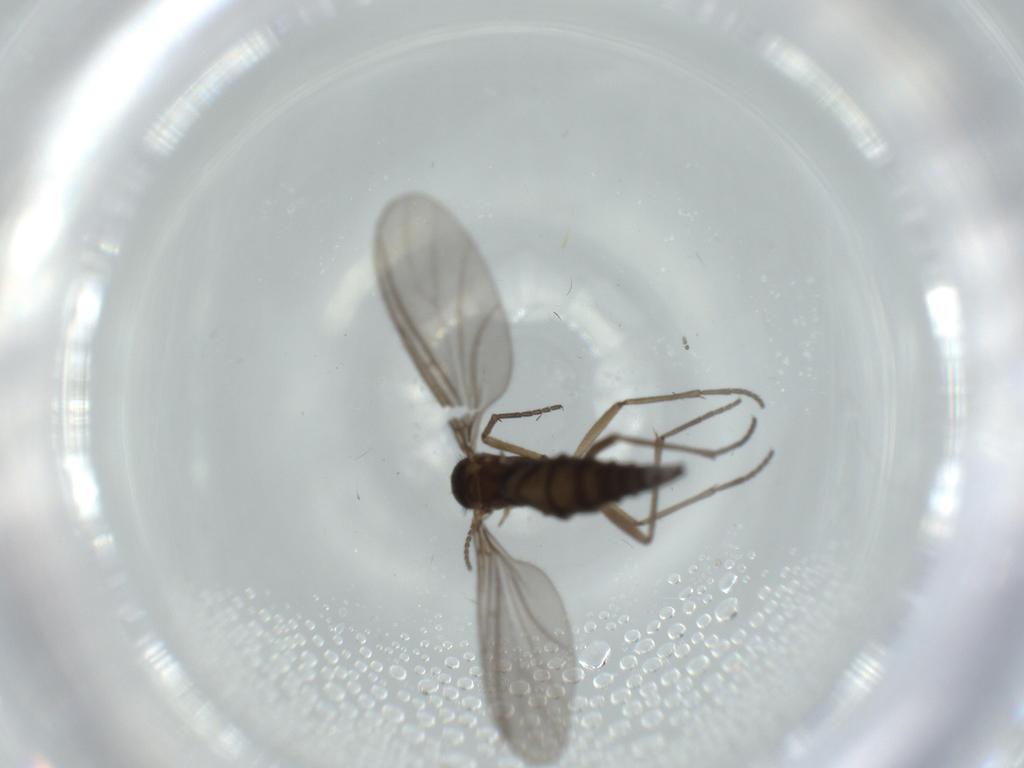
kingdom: Animalia
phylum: Arthropoda
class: Insecta
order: Diptera
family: Sciaridae
